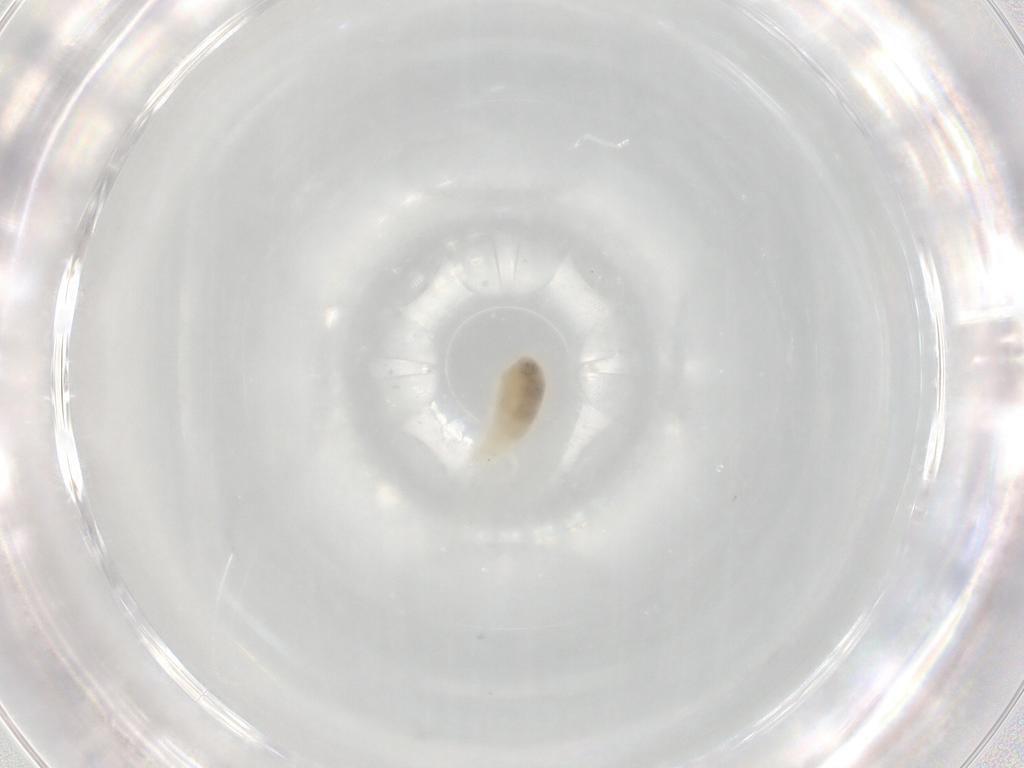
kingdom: Animalia
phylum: Arthropoda
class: Arachnida
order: Trombidiformes
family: Rhagidiidae
